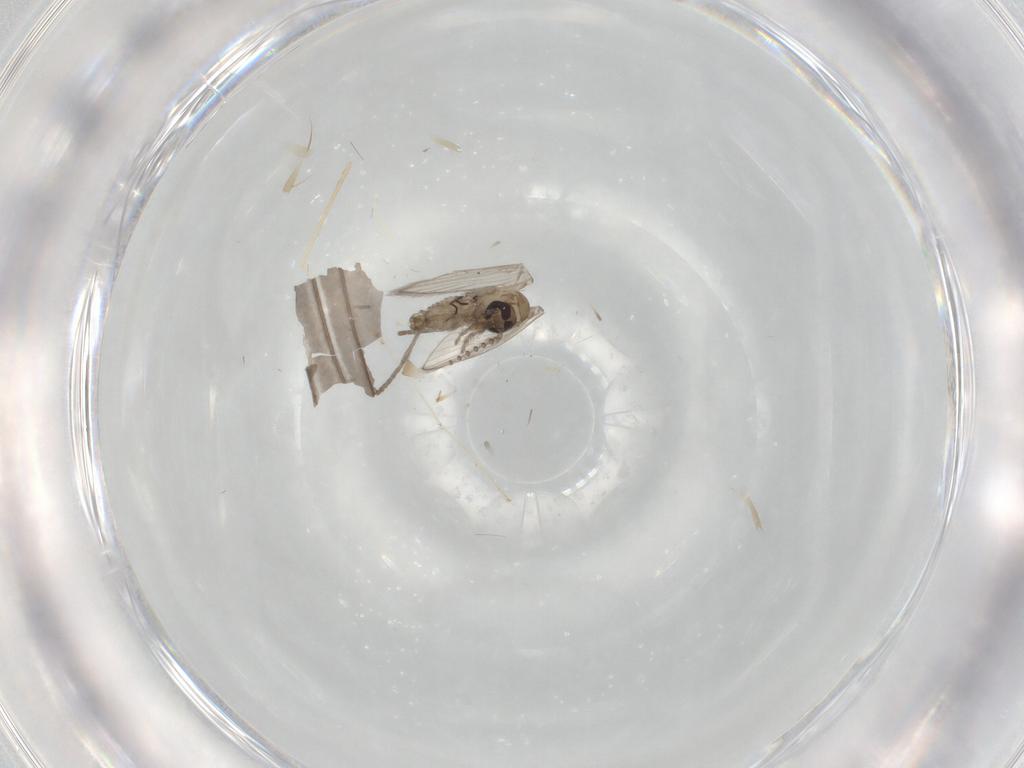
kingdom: Animalia
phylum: Arthropoda
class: Insecta
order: Diptera
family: Psychodidae
